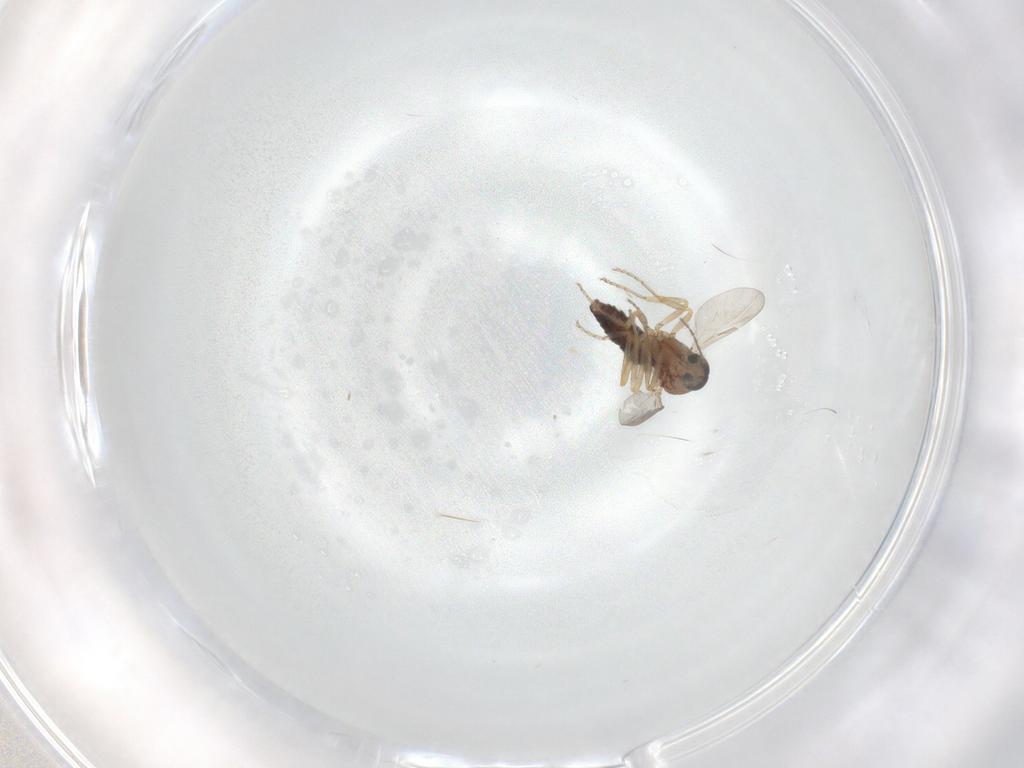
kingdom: Animalia
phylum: Arthropoda
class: Insecta
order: Diptera
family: Ceratopogonidae
